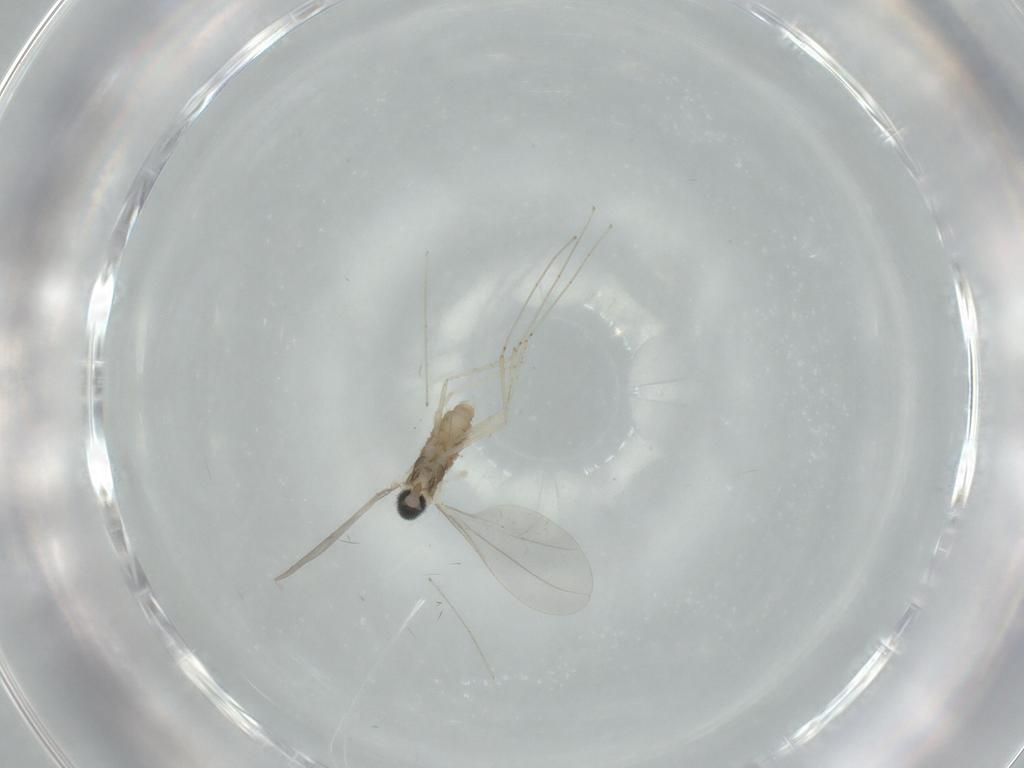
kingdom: Animalia
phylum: Arthropoda
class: Insecta
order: Diptera
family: Cecidomyiidae
